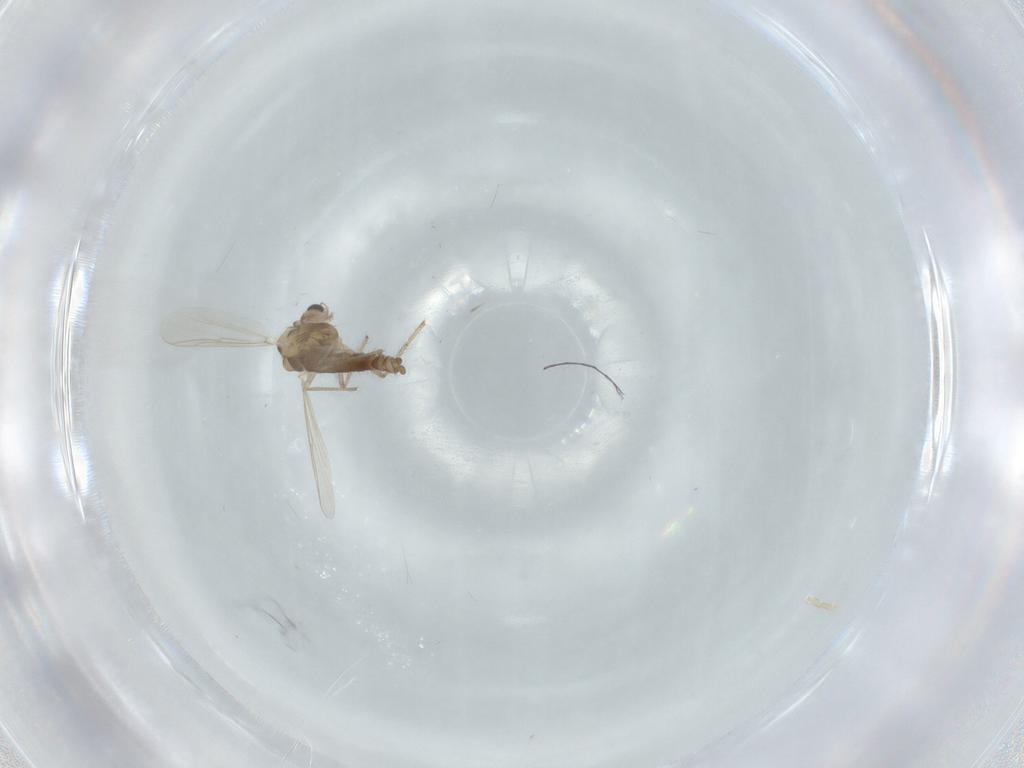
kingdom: Animalia
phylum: Arthropoda
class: Insecta
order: Diptera
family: Chironomidae
